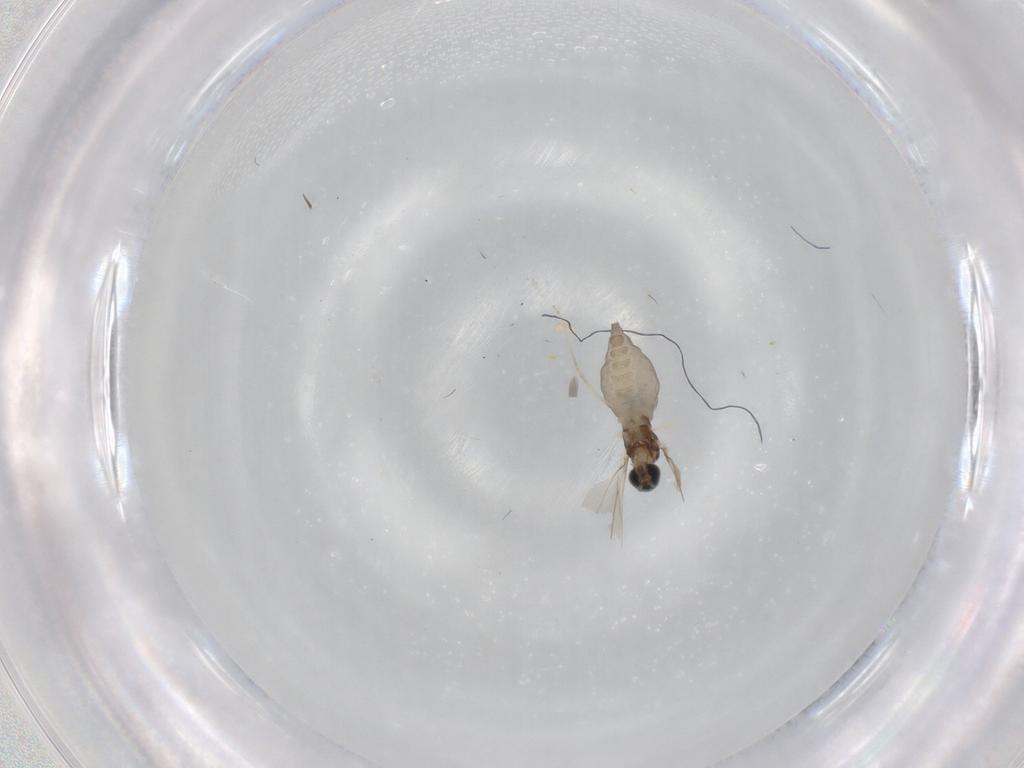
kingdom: Animalia
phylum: Arthropoda
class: Insecta
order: Diptera
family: Cecidomyiidae
